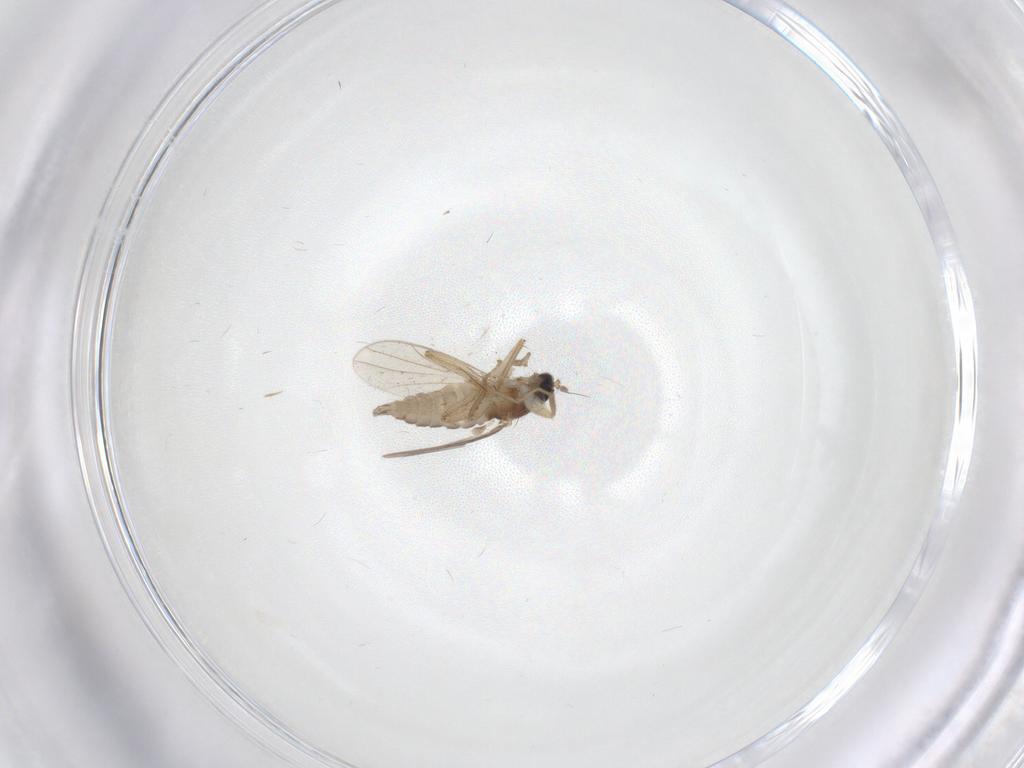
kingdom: Animalia
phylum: Arthropoda
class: Insecta
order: Diptera
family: Hybotidae
